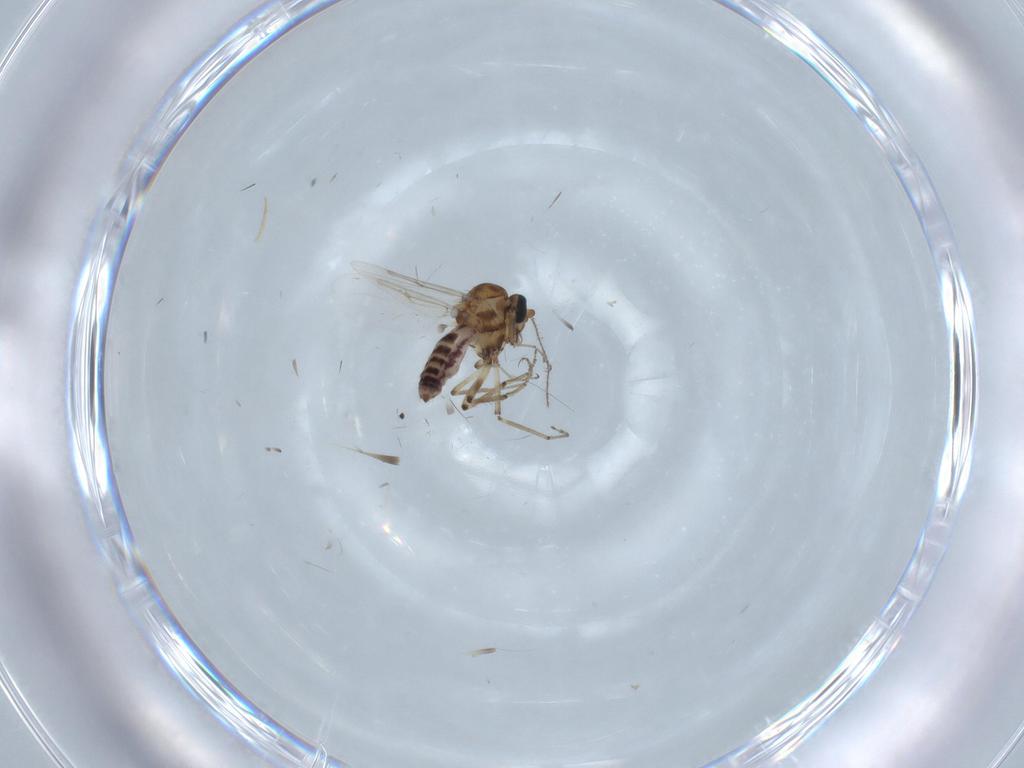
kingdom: Animalia
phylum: Arthropoda
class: Insecta
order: Diptera
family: Ceratopogonidae
